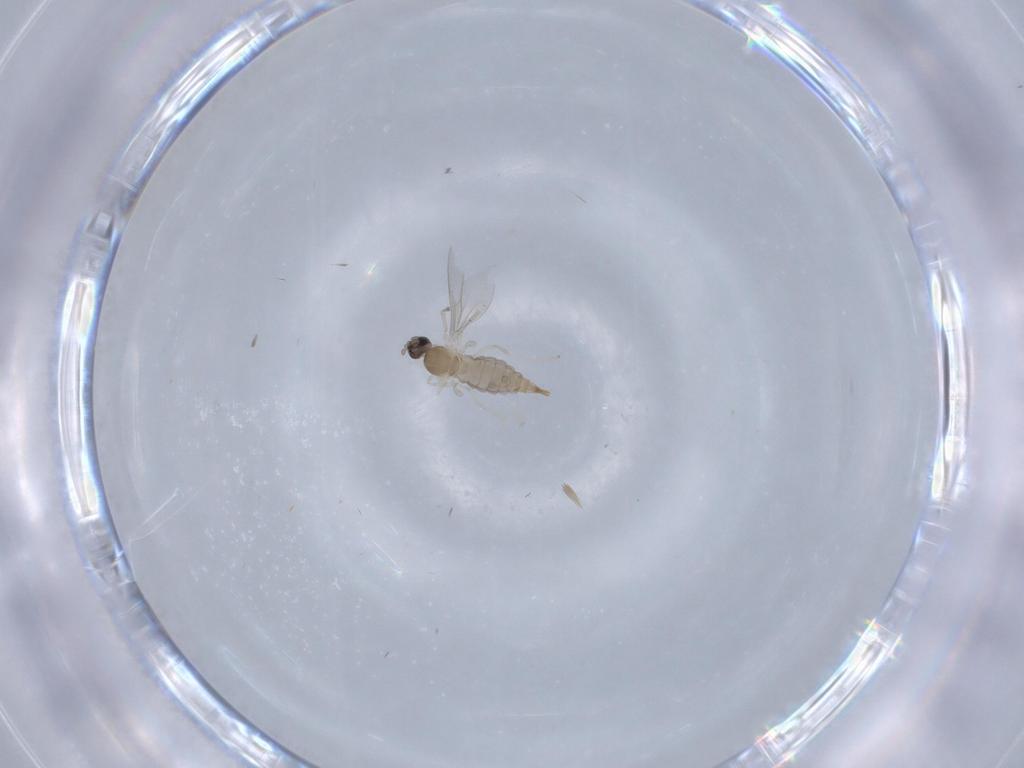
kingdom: Animalia
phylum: Arthropoda
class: Insecta
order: Diptera
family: Cecidomyiidae
